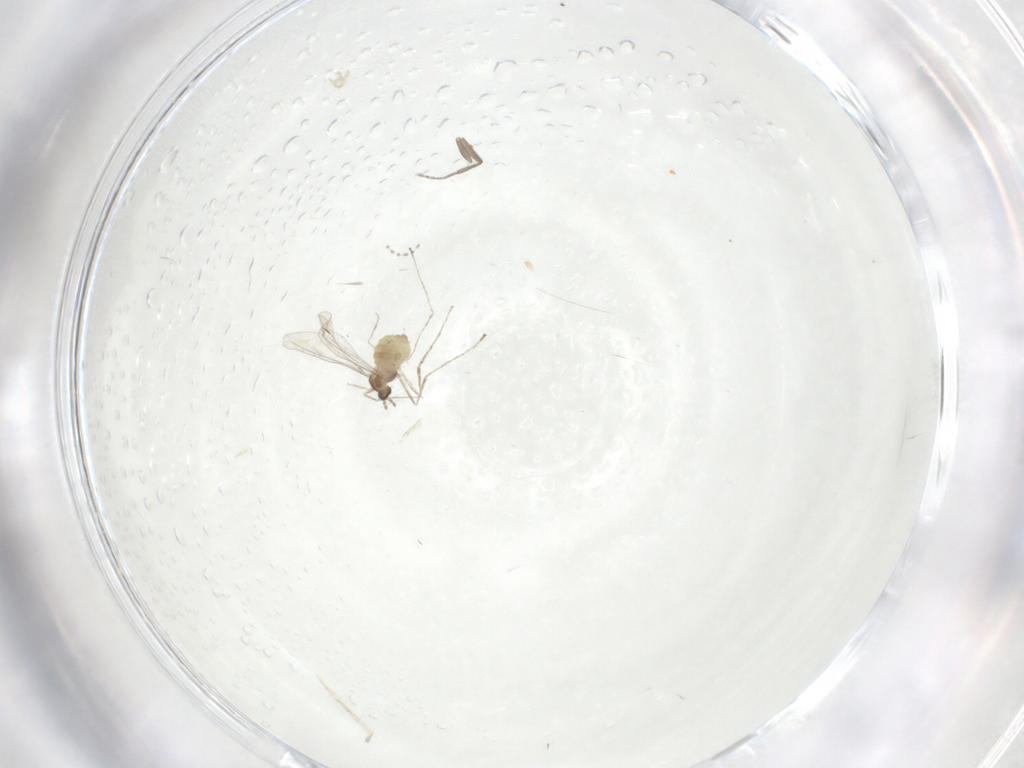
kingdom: Animalia
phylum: Arthropoda
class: Insecta
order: Diptera
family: Cecidomyiidae
